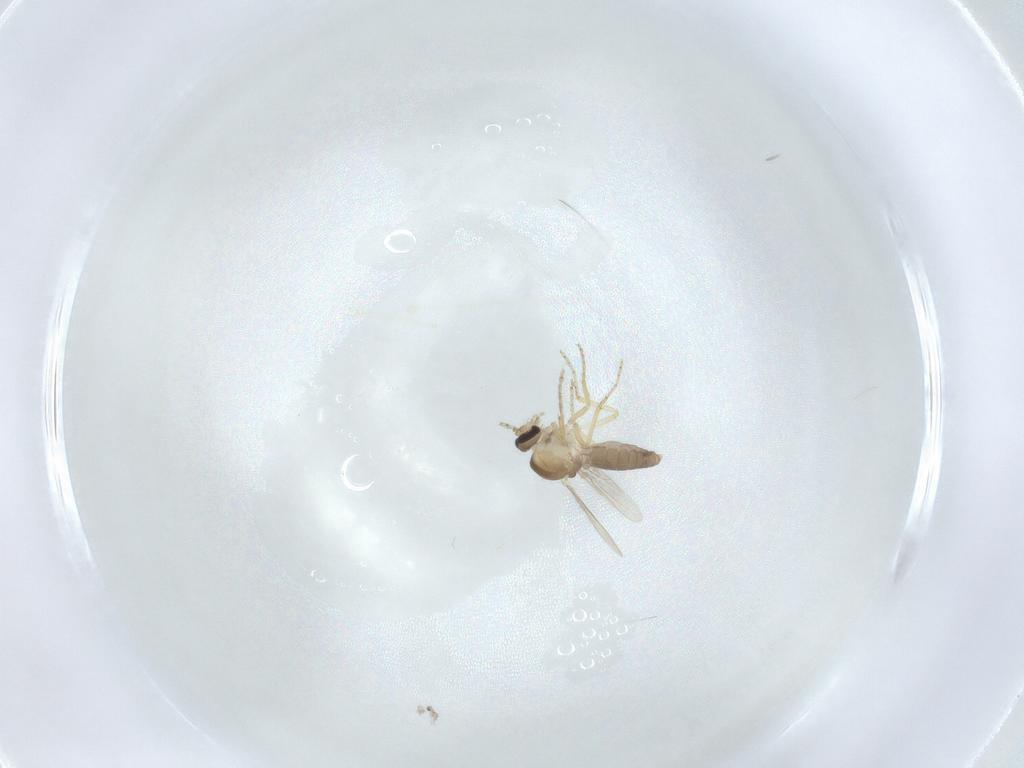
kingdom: Animalia
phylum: Arthropoda
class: Insecta
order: Diptera
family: Ceratopogonidae
